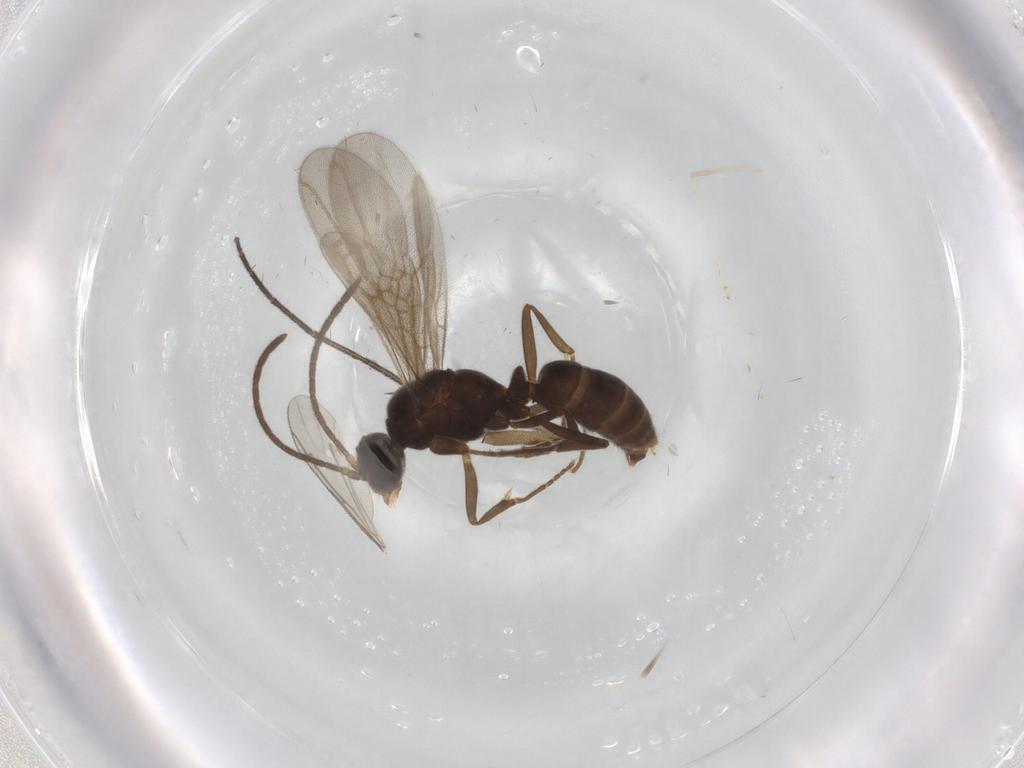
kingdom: Animalia
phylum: Arthropoda
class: Insecta
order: Hymenoptera
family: Formicidae
